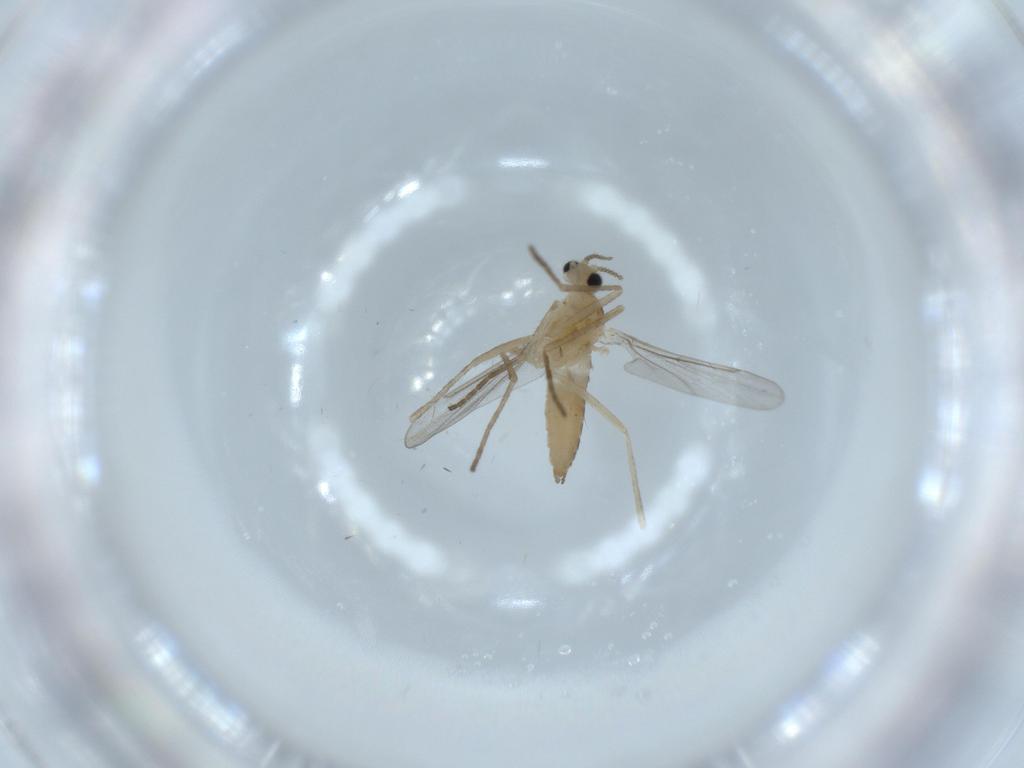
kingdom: Animalia
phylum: Arthropoda
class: Insecta
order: Diptera
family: Cecidomyiidae
